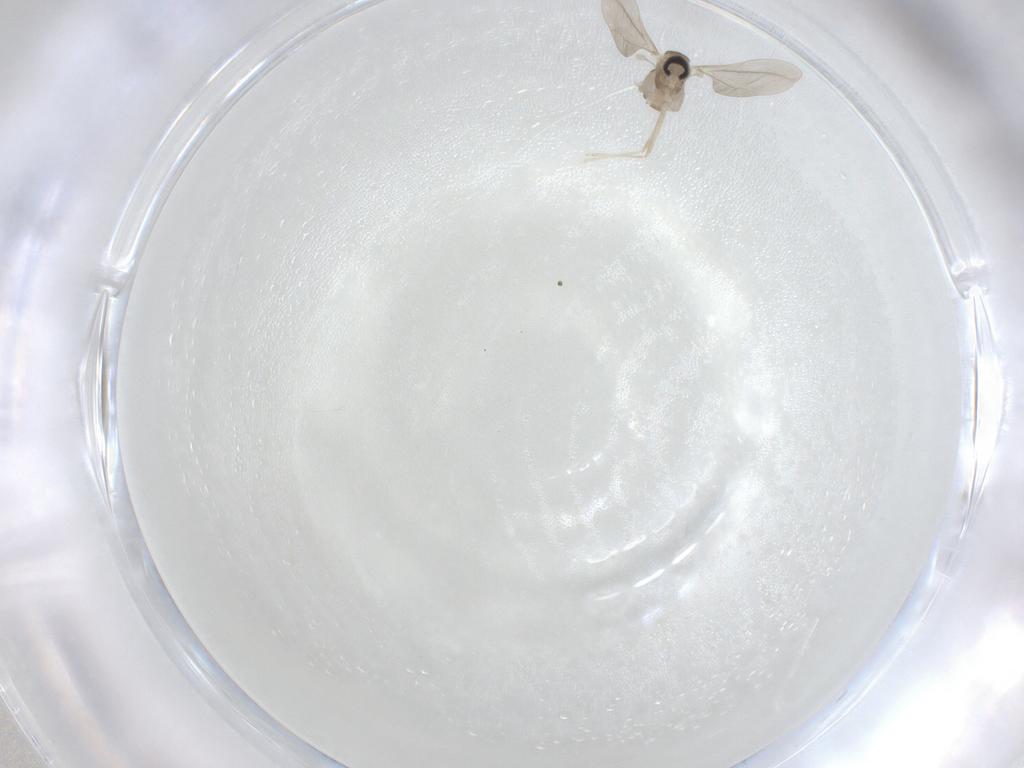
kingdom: Animalia
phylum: Arthropoda
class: Insecta
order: Diptera
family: Cecidomyiidae
